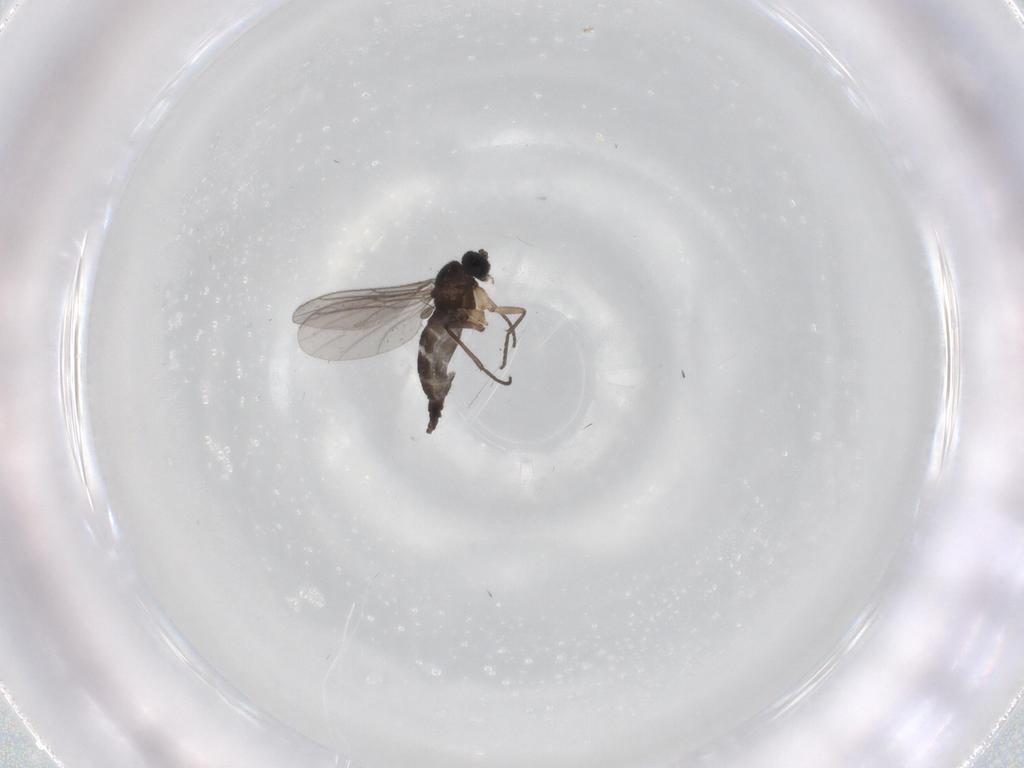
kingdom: Animalia
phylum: Arthropoda
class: Insecta
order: Diptera
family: Sciaridae
